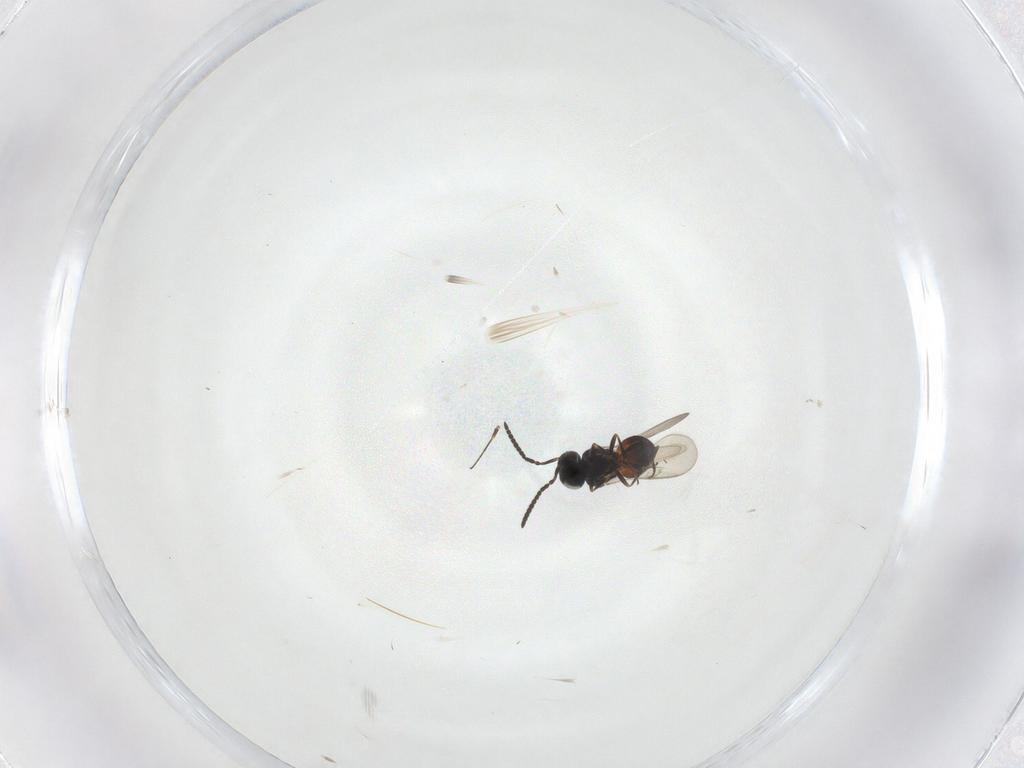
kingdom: Animalia
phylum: Arthropoda
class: Insecta
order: Hymenoptera
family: Scelionidae
